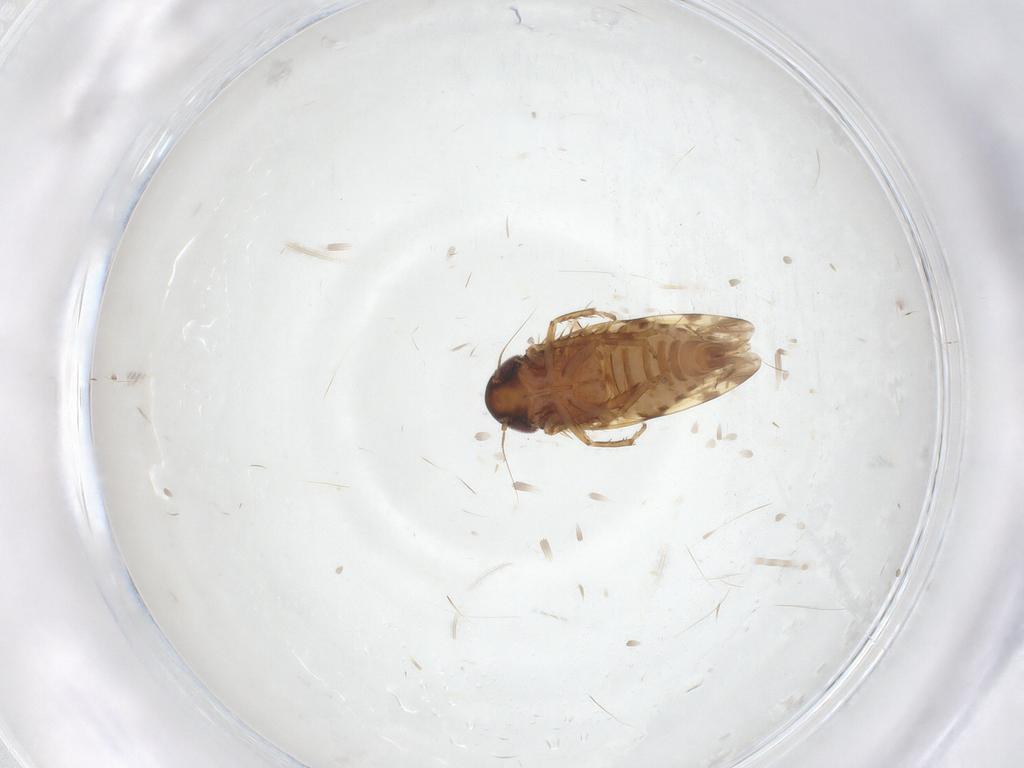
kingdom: Animalia
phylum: Arthropoda
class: Insecta
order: Hemiptera
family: Cicadellidae
